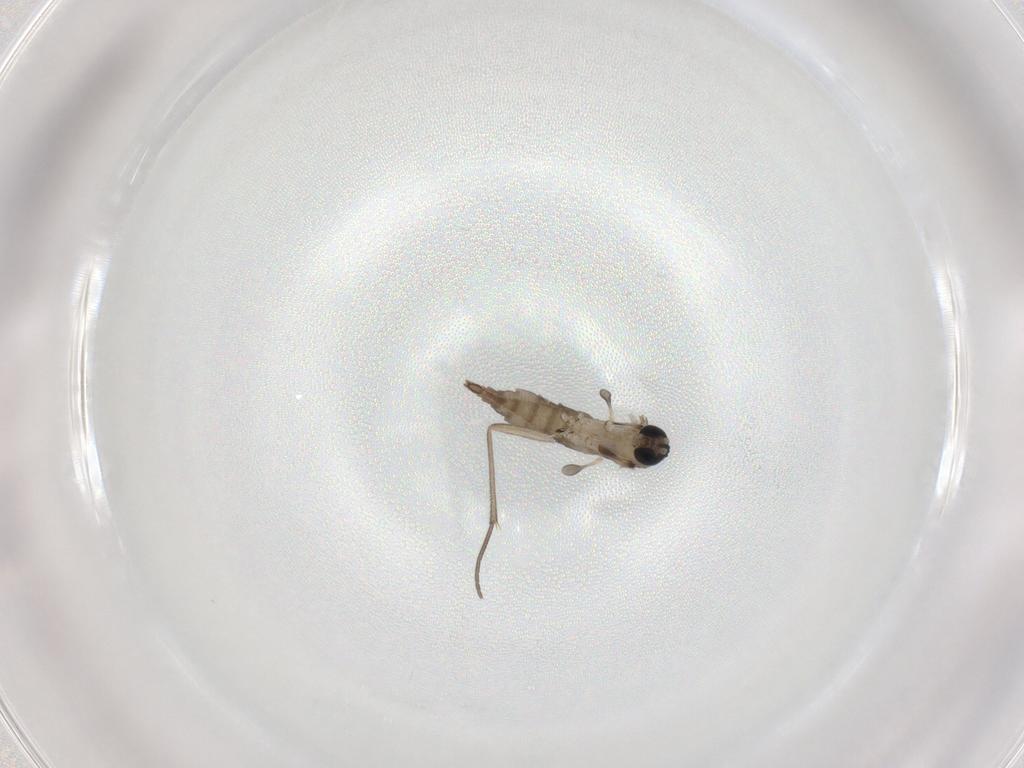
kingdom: Animalia
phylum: Arthropoda
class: Insecta
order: Diptera
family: Sciaridae
